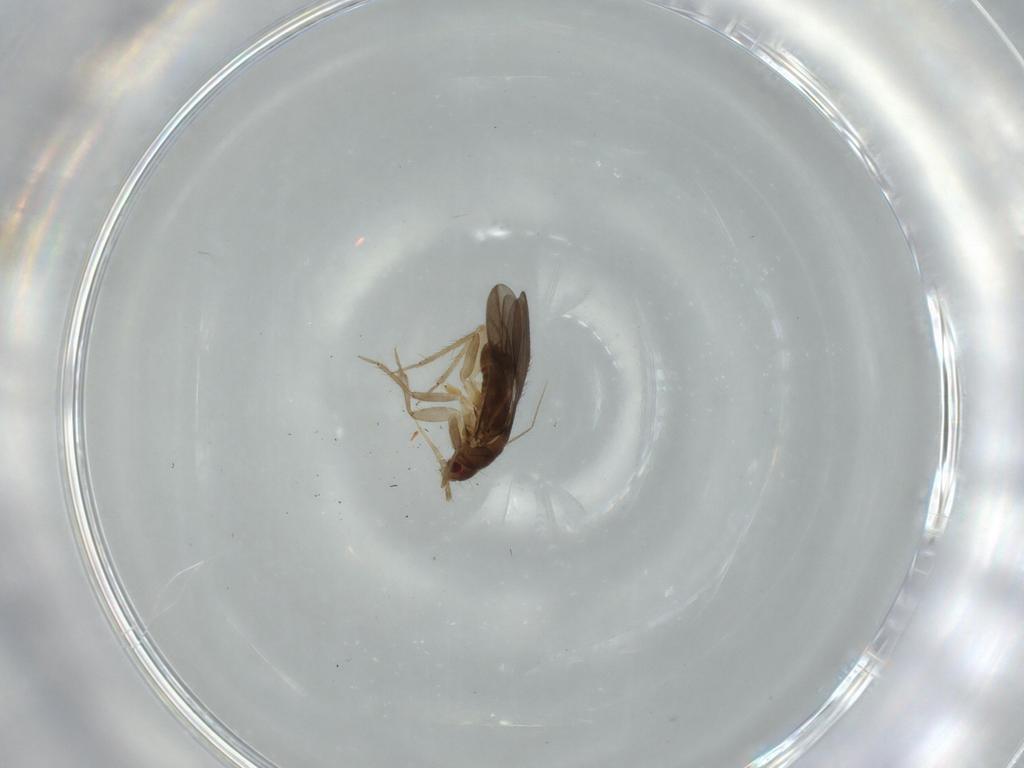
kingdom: Animalia
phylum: Arthropoda
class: Insecta
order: Hemiptera
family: Ceratocombidae
